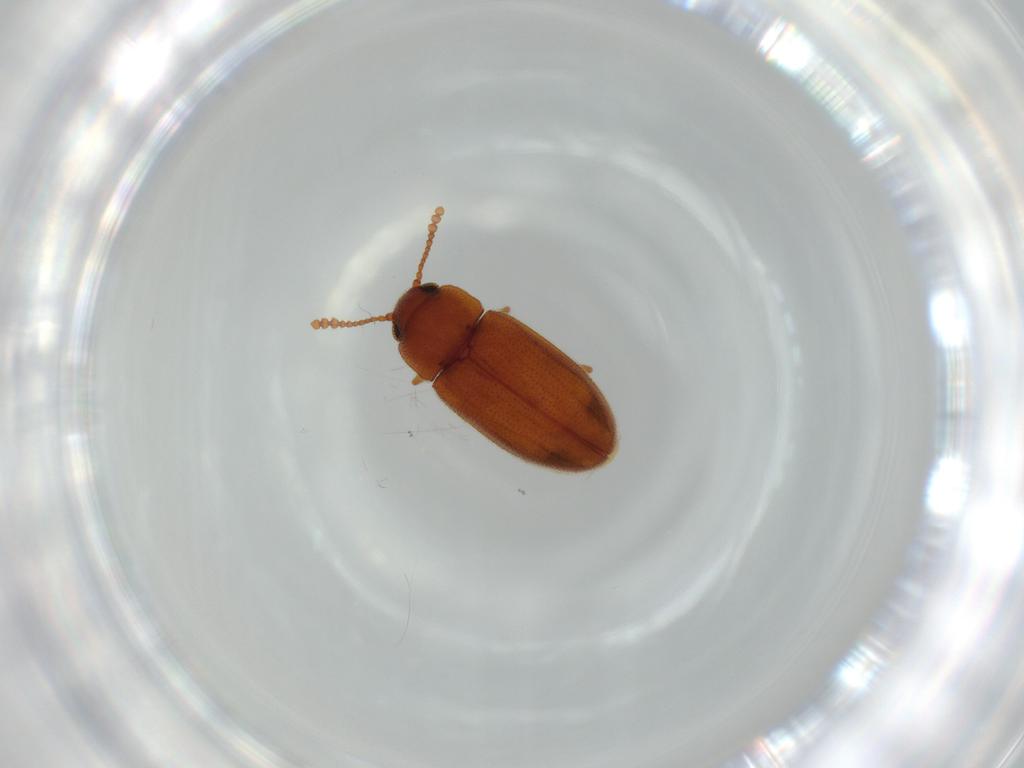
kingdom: Animalia
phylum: Arthropoda
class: Insecta
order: Coleoptera
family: Erotylidae
